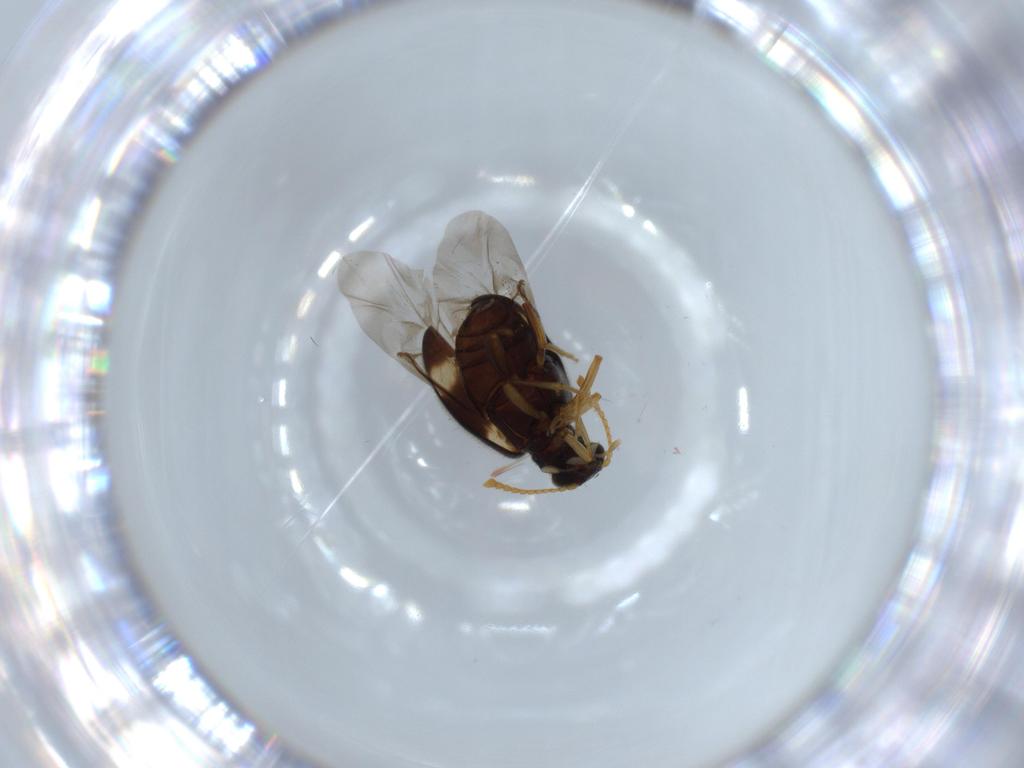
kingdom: Animalia
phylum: Arthropoda
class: Insecta
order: Coleoptera
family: Aderidae
